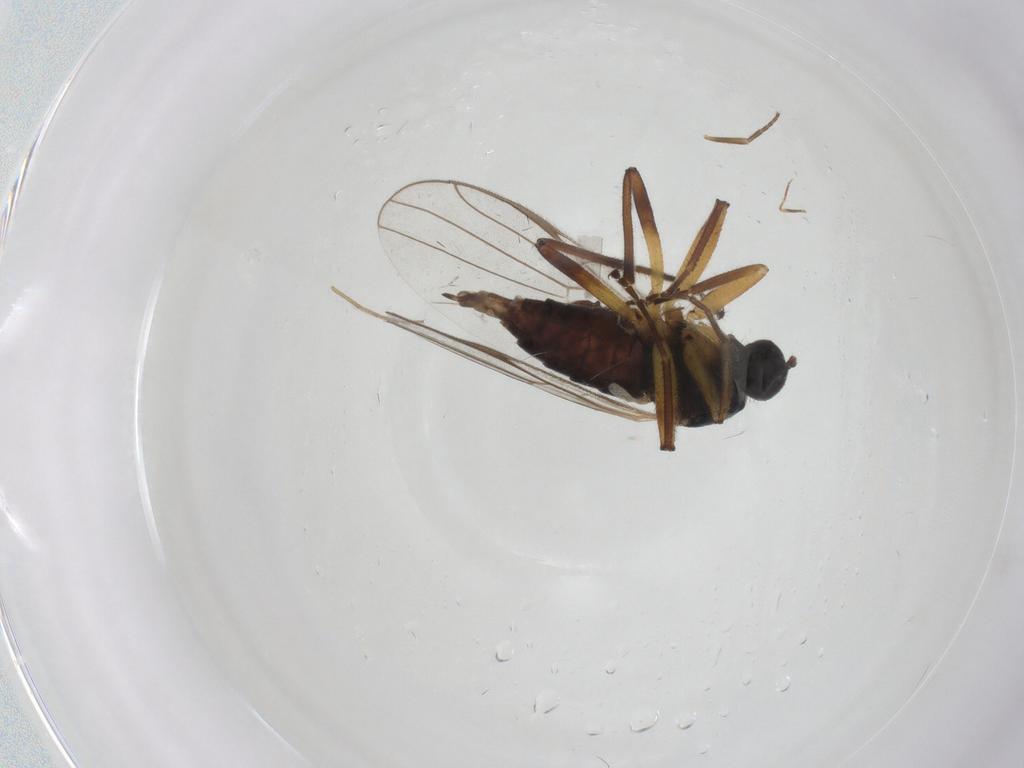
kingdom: Animalia
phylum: Arthropoda
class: Insecta
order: Diptera
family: Hybotidae
